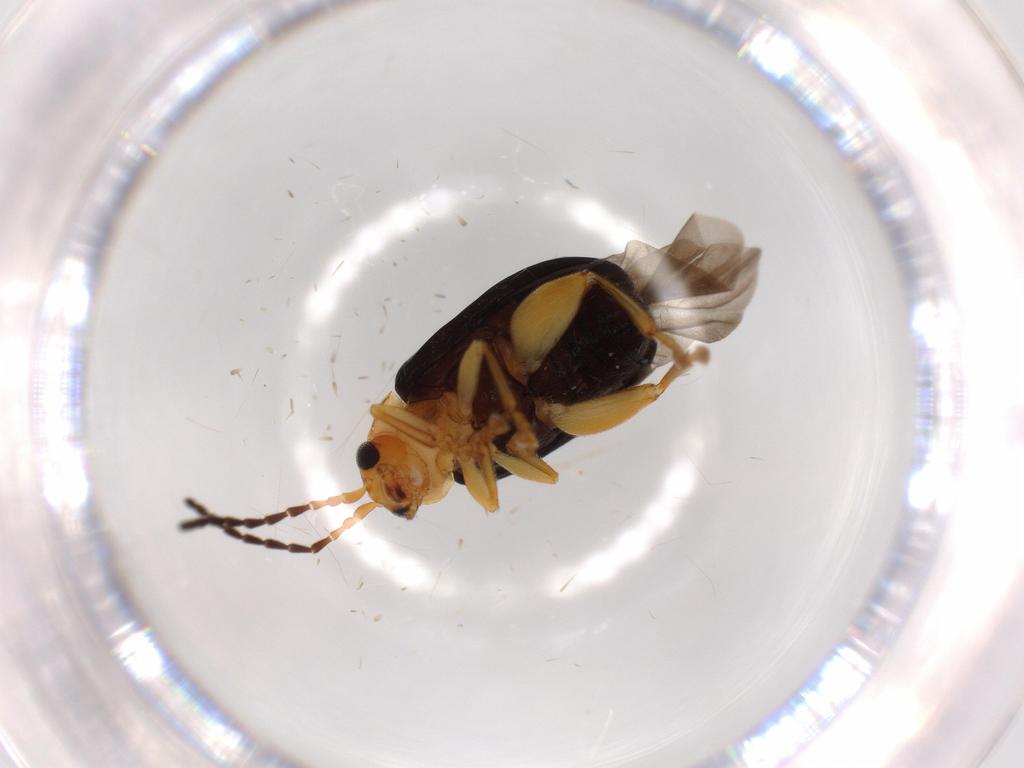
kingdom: Animalia
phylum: Arthropoda
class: Insecta
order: Coleoptera
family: Chrysomelidae
